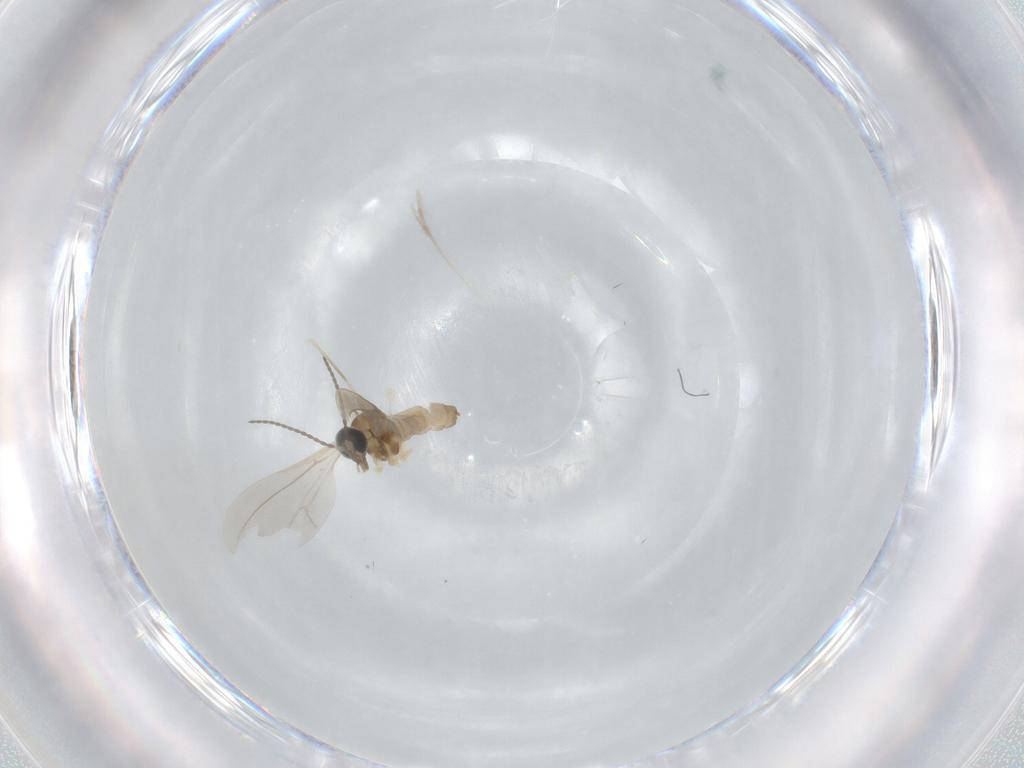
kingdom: Animalia
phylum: Arthropoda
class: Insecta
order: Diptera
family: Cecidomyiidae
